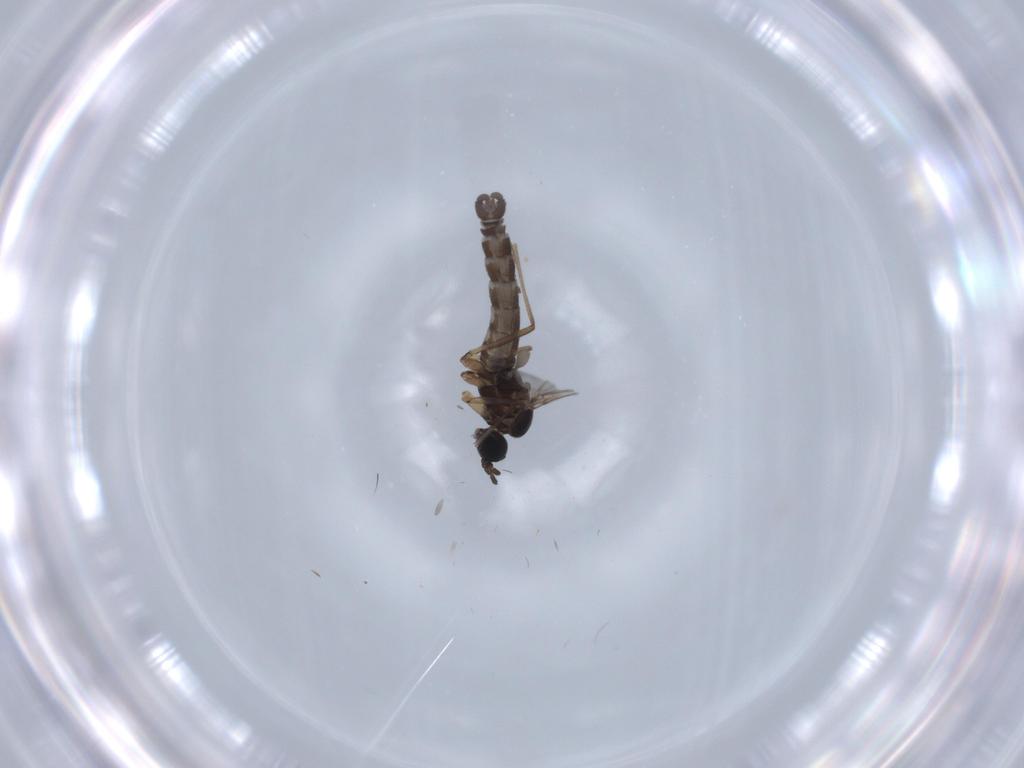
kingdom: Animalia
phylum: Arthropoda
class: Insecta
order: Diptera
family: Sciaridae
